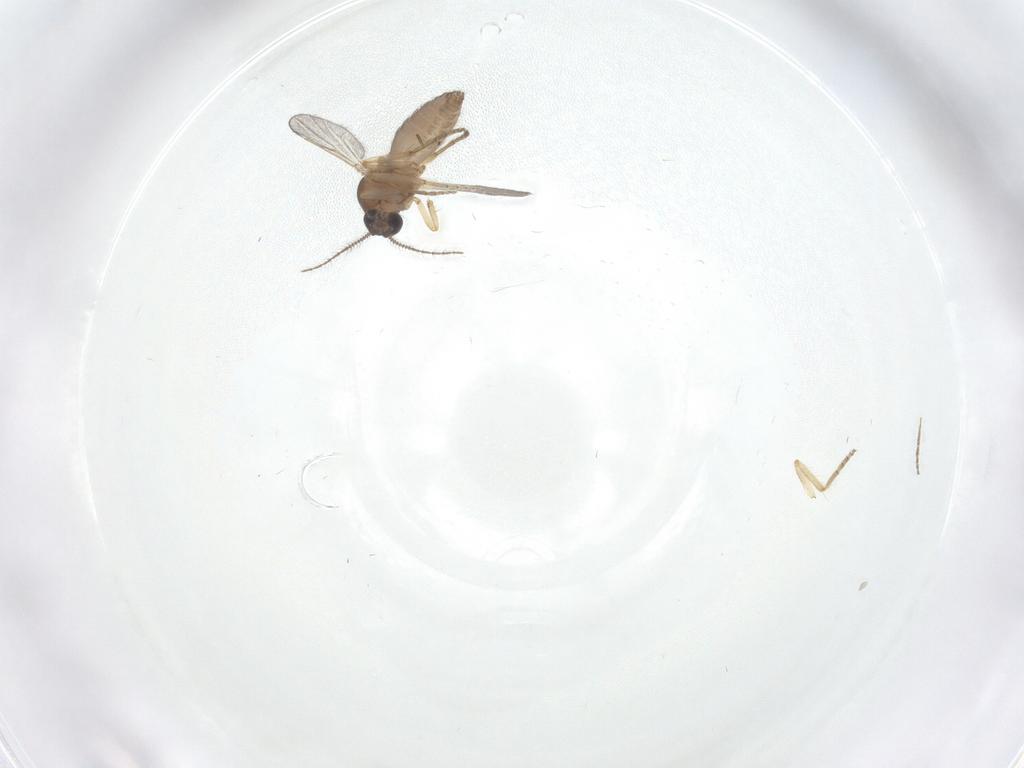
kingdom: Animalia
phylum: Arthropoda
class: Insecta
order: Diptera
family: Ceratopogonidae
